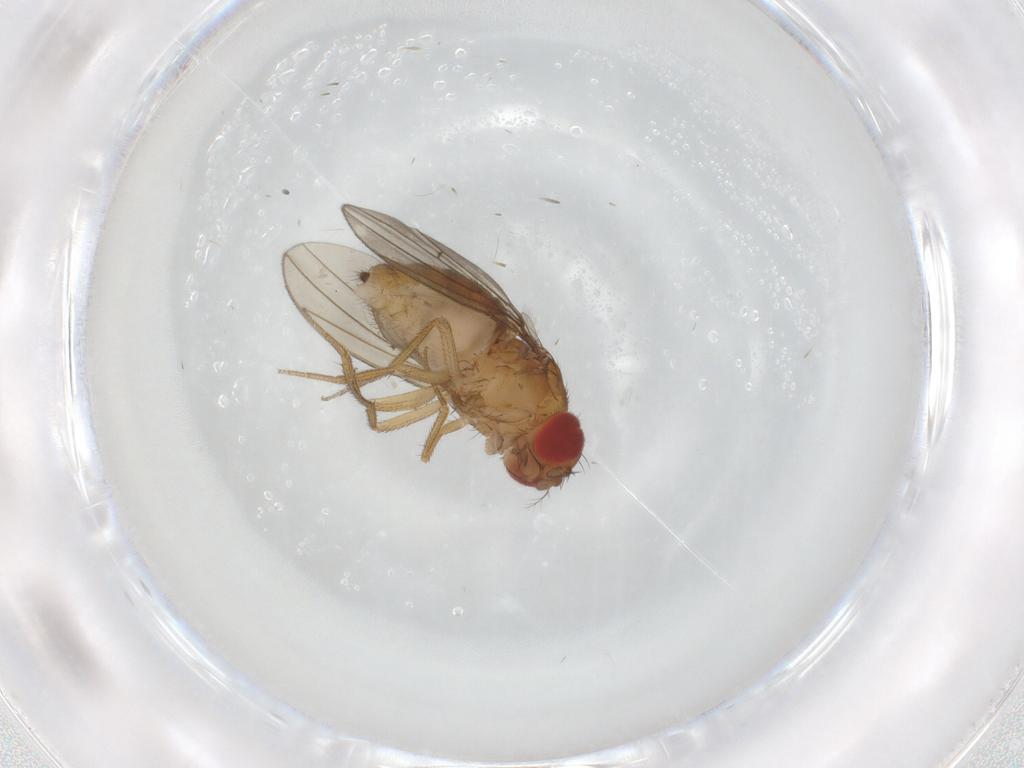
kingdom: Animalia
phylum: Arthropoda
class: Insecta
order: Diptera
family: Drosophilidae
